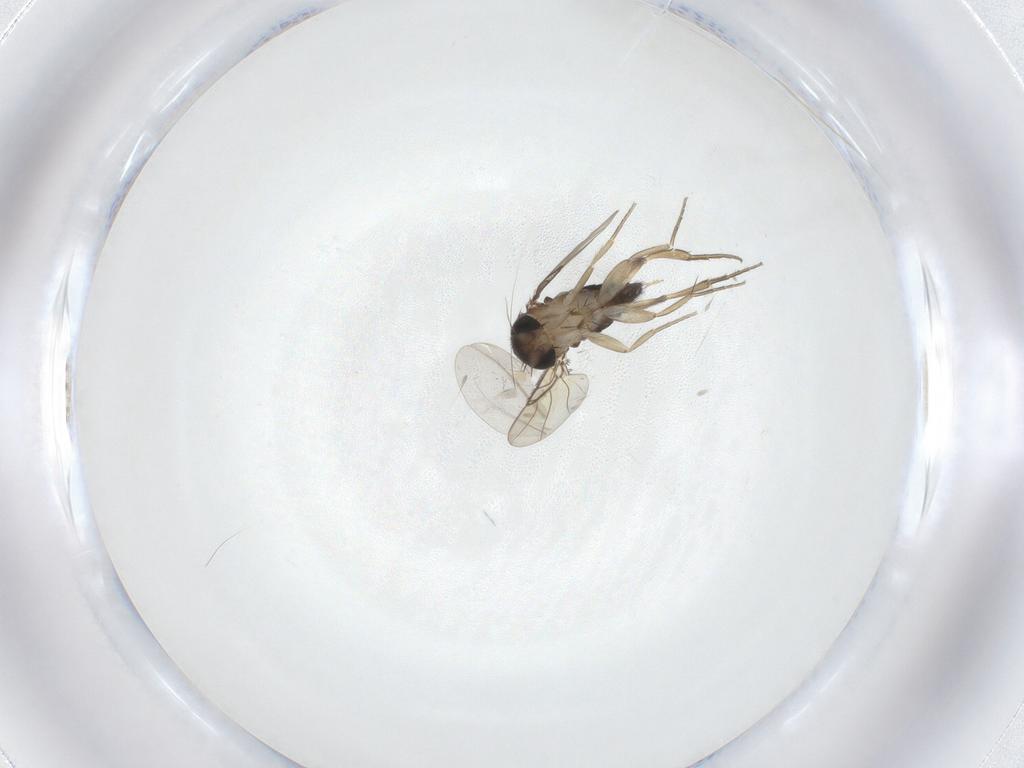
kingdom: Animalia
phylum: Arthropoda
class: Insecta
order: Diptera
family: Phoridae
